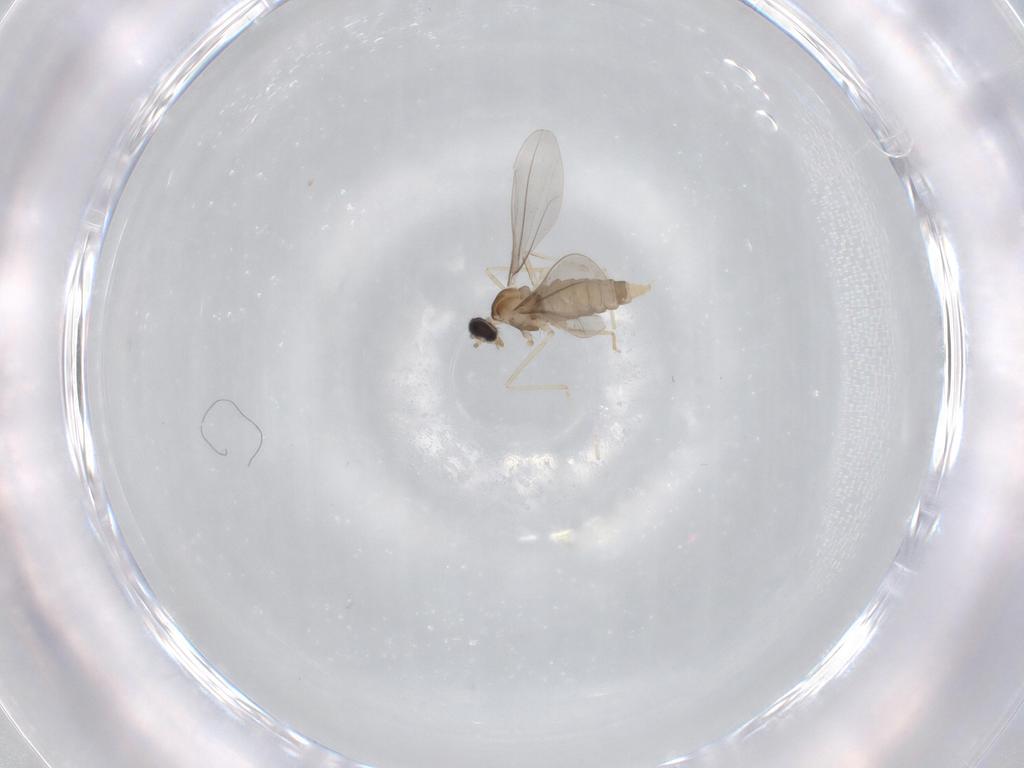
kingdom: Animalia
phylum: Arthropoda
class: Insecta
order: Diptera
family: Cecidomyiidae
